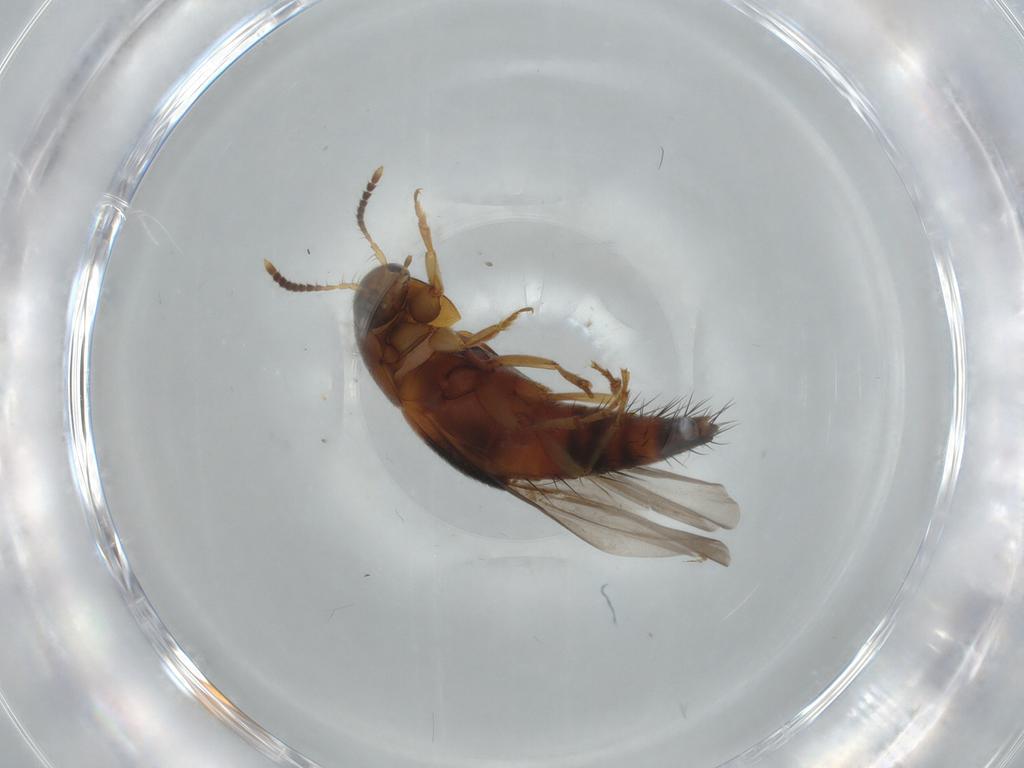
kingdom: Animalia
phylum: Arthropoda
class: Insecta
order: Coleoptera
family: Staphylinidae
